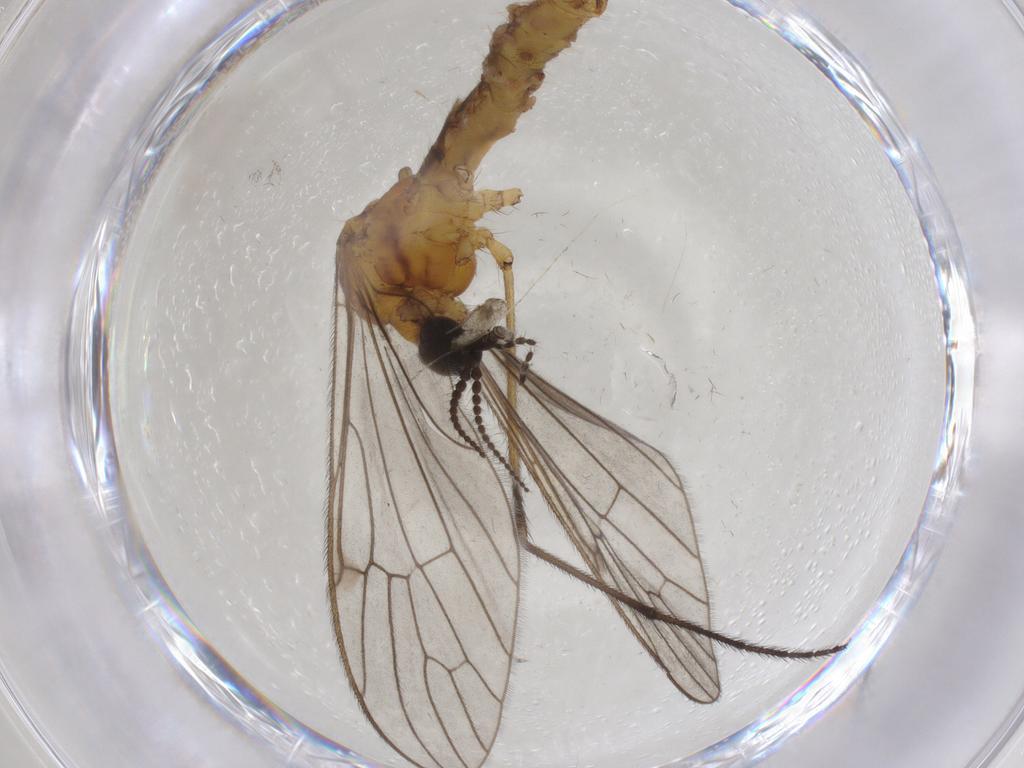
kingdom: Animalia
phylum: Arthropoda
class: Insecta
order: Diptera
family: Limoniidae
